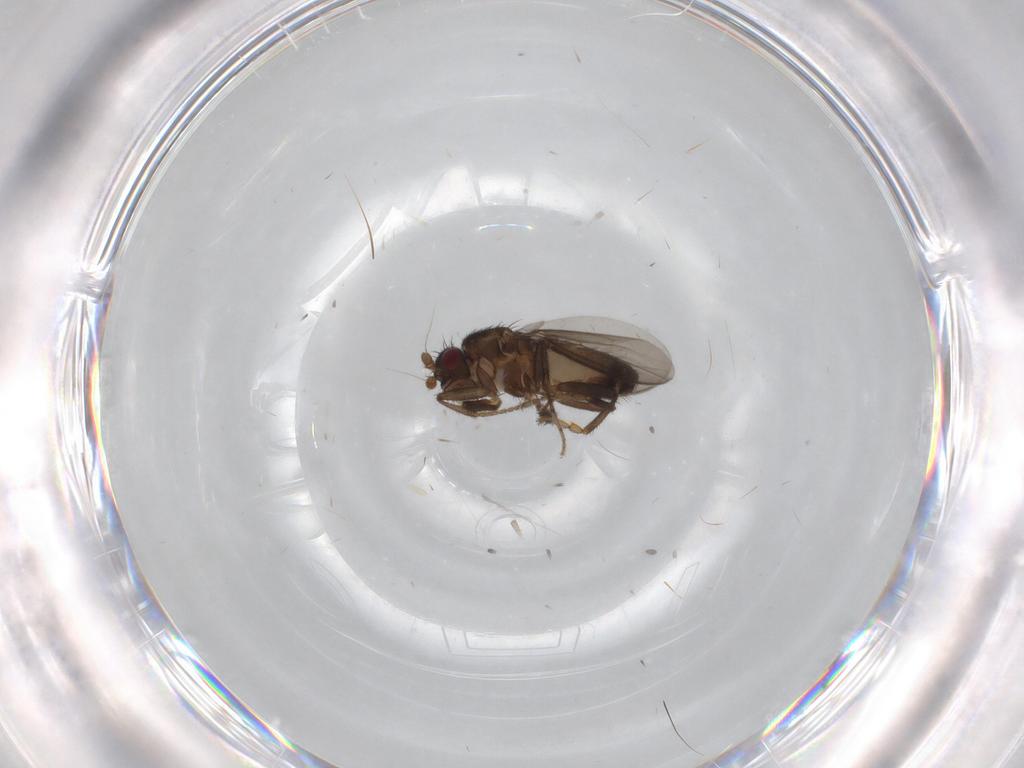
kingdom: Animalia
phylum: Arthropoda
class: Insecta
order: Diptera
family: Sphaeroceridae
